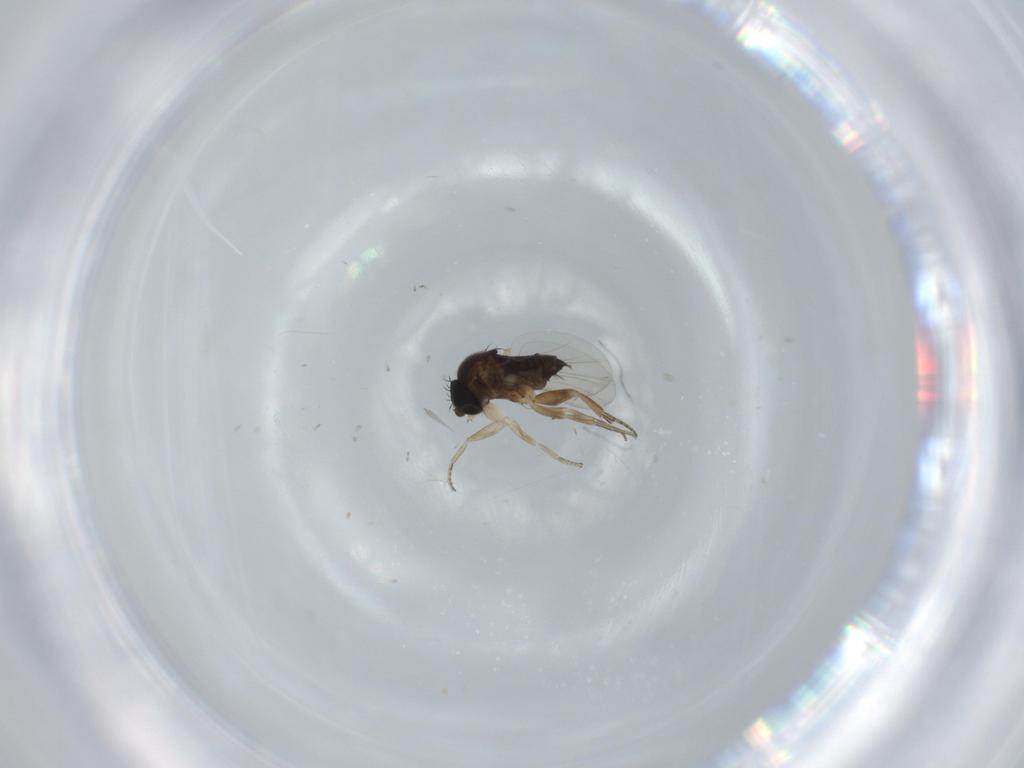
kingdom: Animalia
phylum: Arthropoda
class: Insecta
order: Diptera
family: Cecidomyiidae
